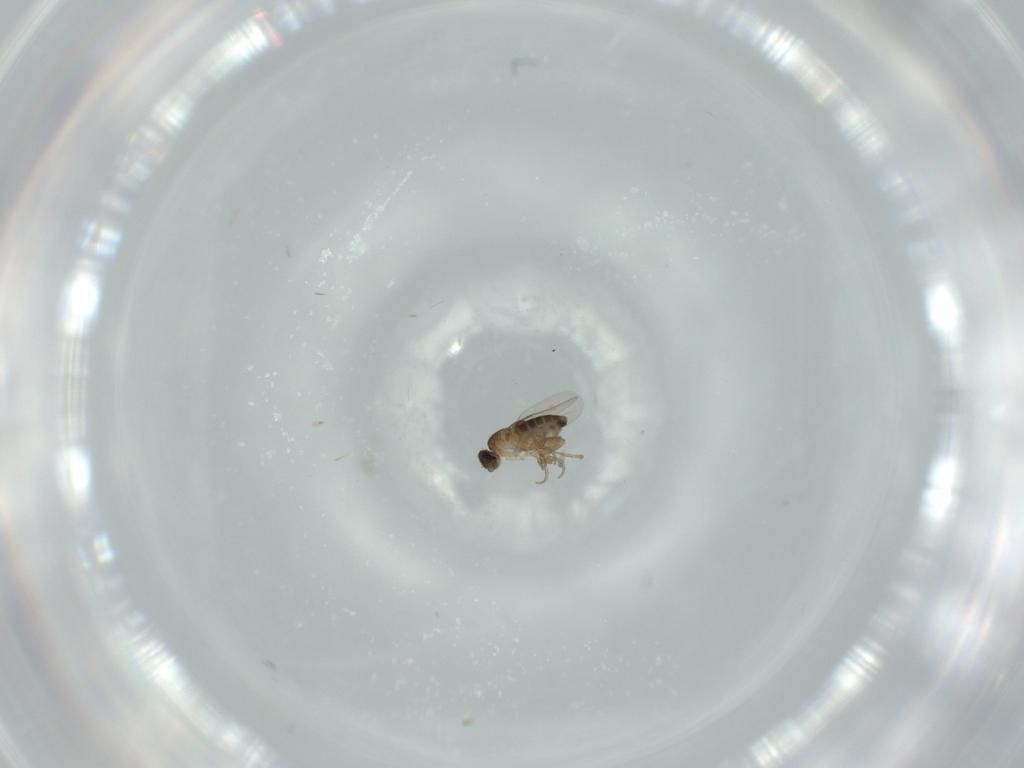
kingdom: Animalia
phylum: Arthropoda
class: Insecta
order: Diptera
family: Phoridae
